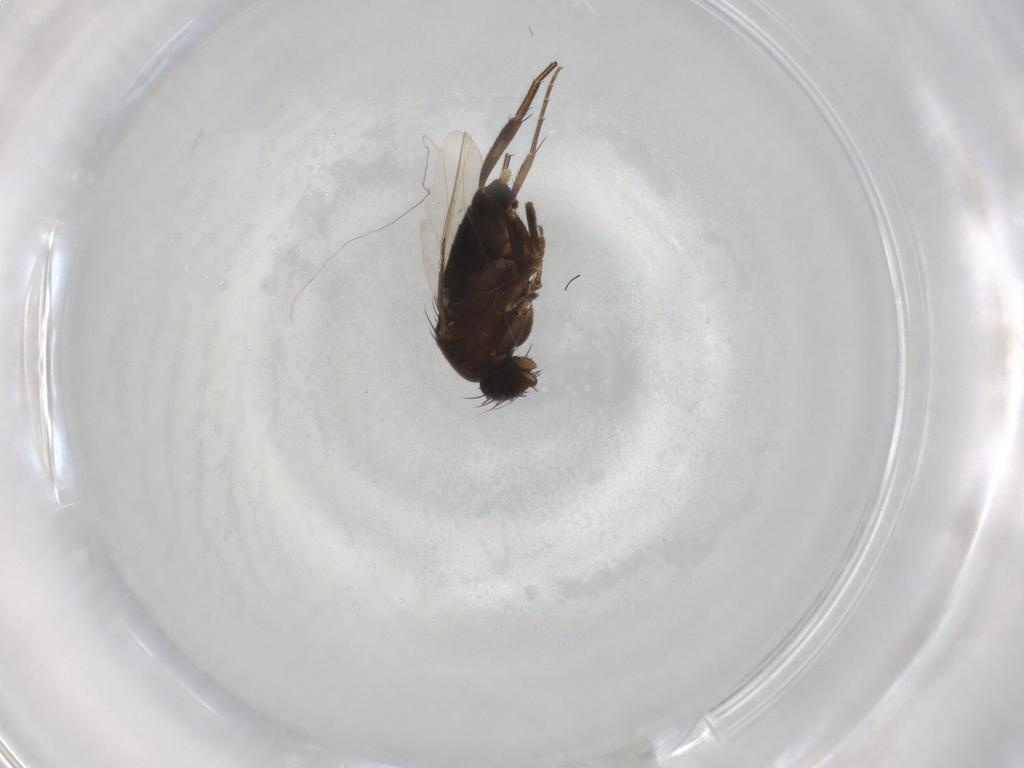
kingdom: Animalia
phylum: Arthropoda
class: Insecta
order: Diptera
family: Phoridae
